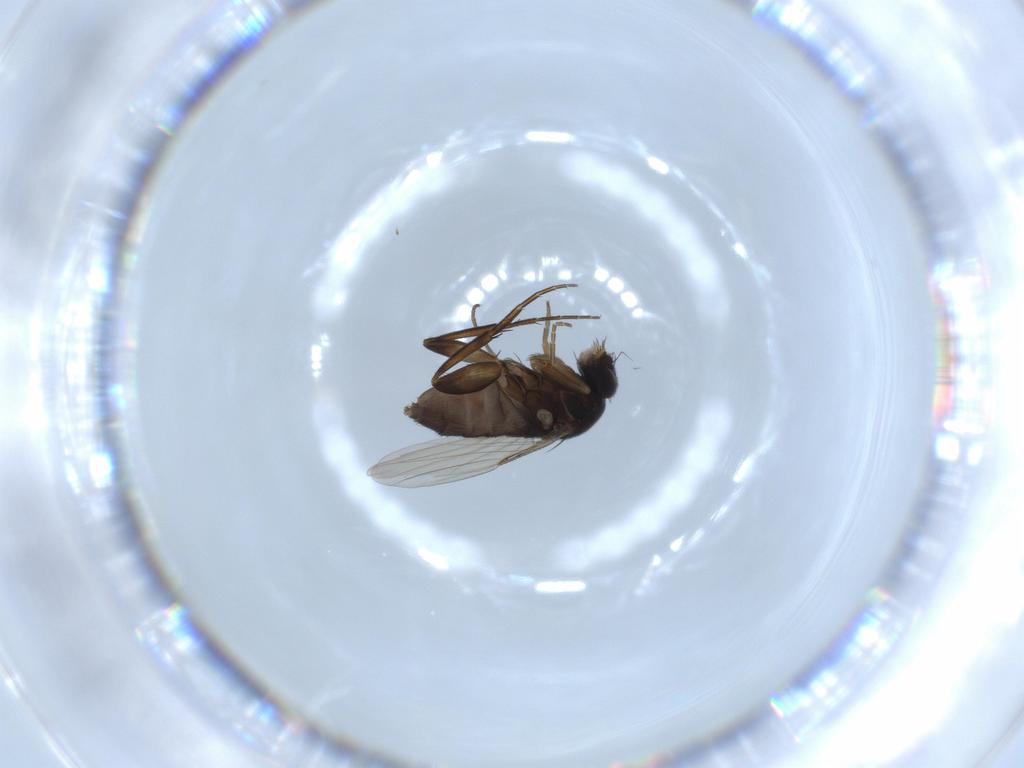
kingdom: Animalia
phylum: Arthropoda
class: Insecta
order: Diptera
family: Phoridae
